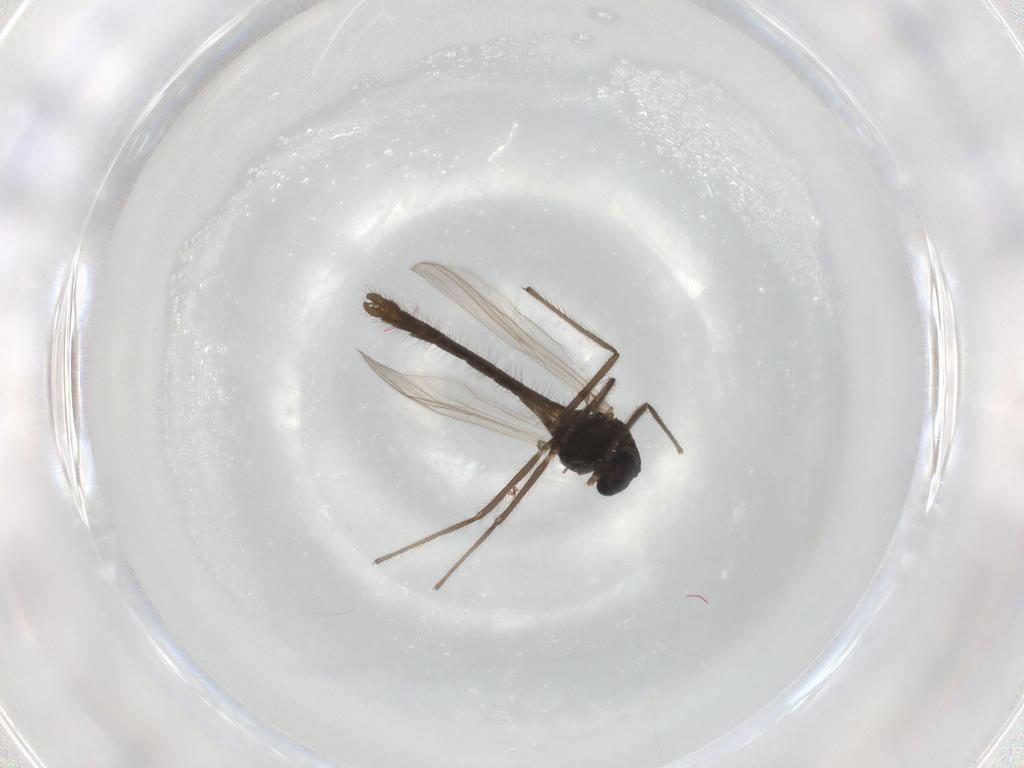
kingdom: Animalia
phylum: Arthropoda
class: Insecta
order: Diptera
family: Chironomidae
